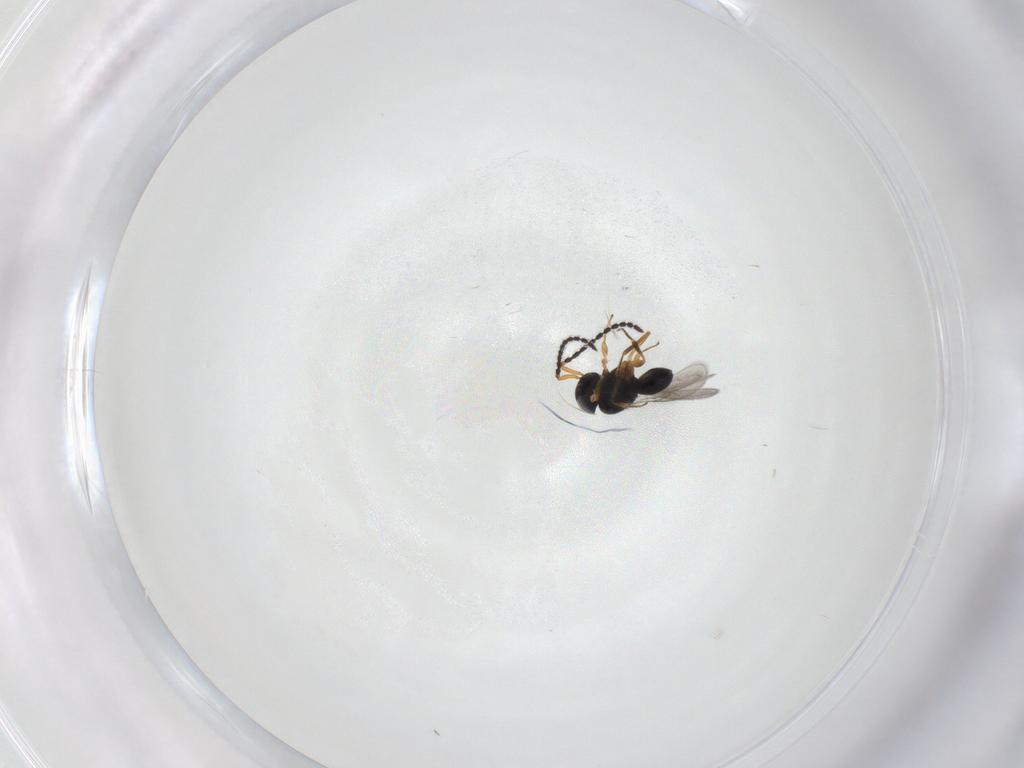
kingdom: Animalia
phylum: Arthropoda
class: Insecta
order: Hymenoptera
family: Scelionidae
